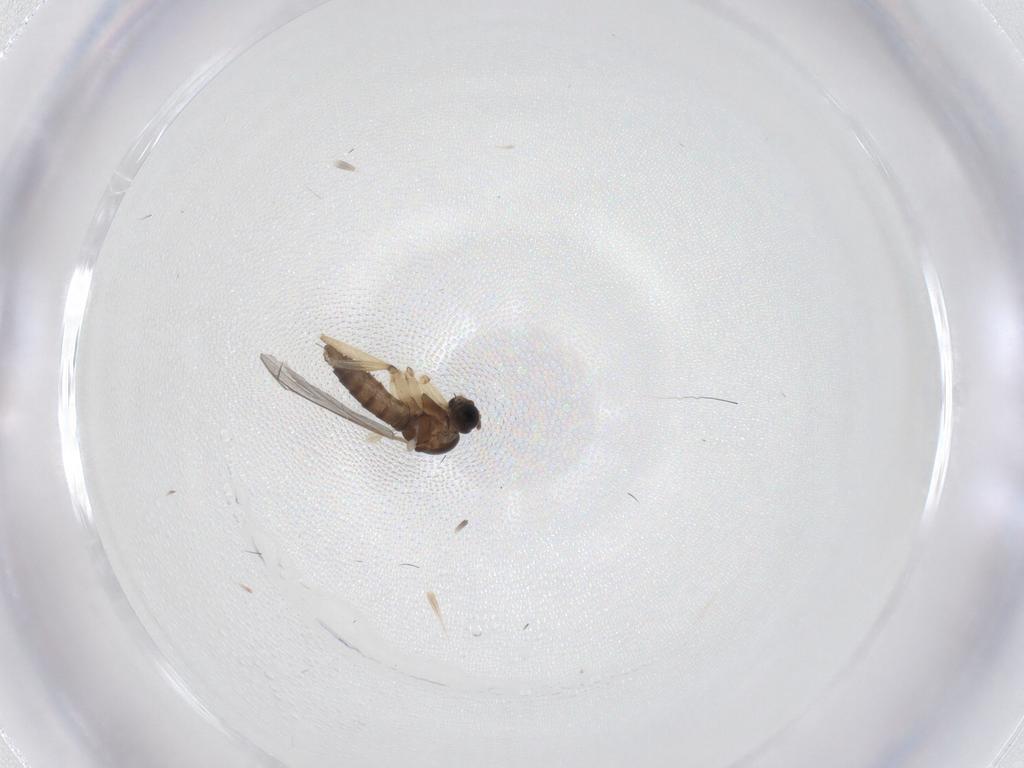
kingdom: Animalia
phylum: Arthropoda
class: Insecta
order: Diptera
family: Sciaridae
